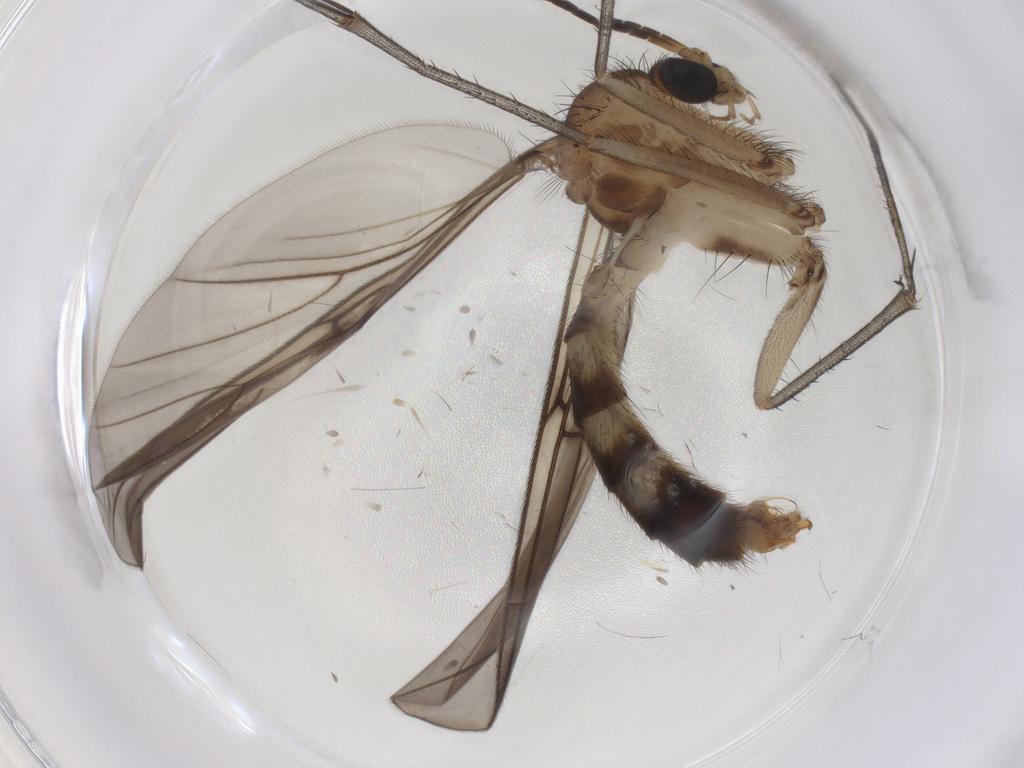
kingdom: Animalia
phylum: Arthropoda
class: Insecta
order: Diptera
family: Mycetophilidae
